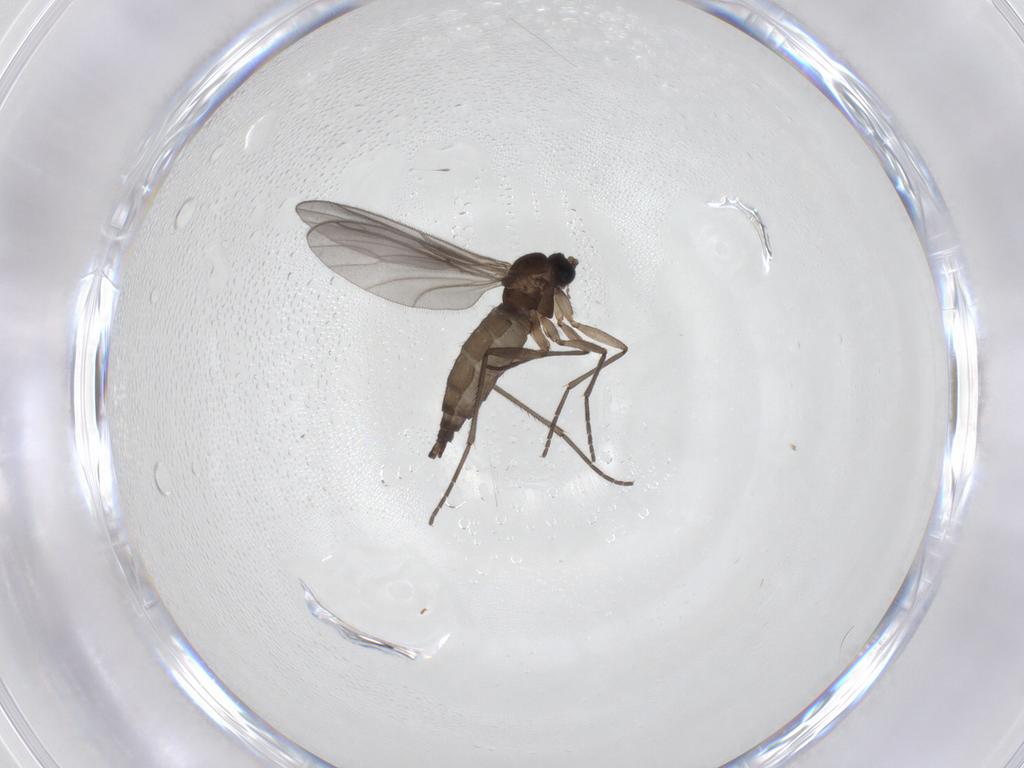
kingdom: Animalia
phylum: Arthropoda
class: Insecta
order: Diptera
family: Sciaridae
